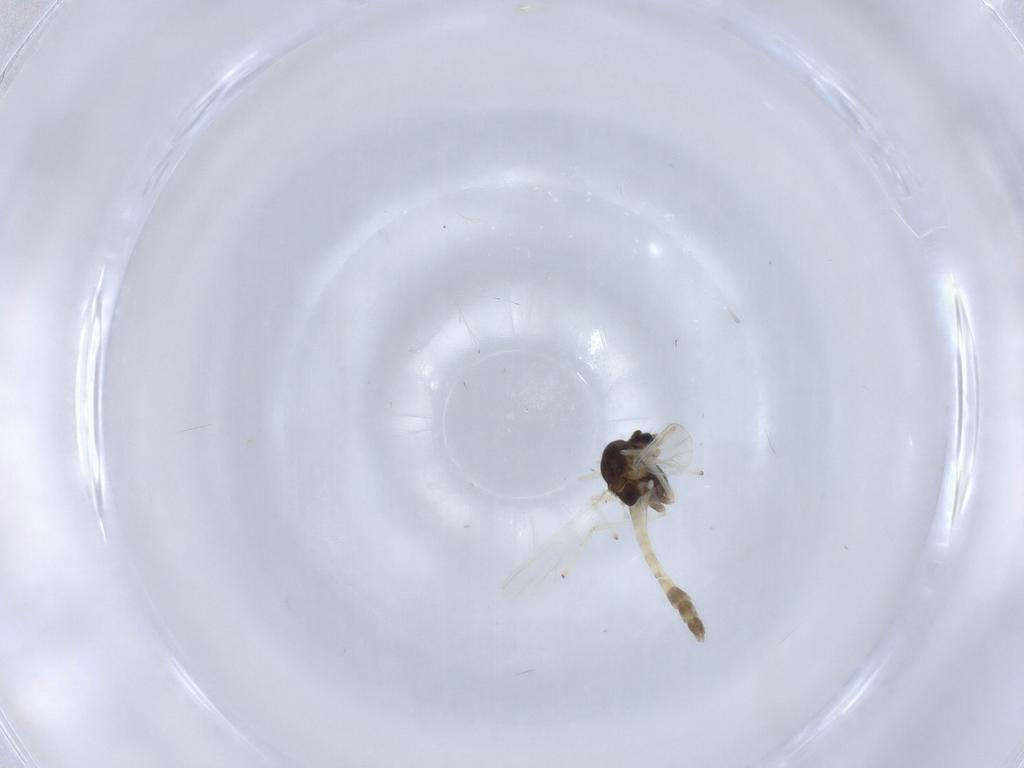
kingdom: Animalia
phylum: Arthropoda
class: Insecta
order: Diptera
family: Chironomidae
